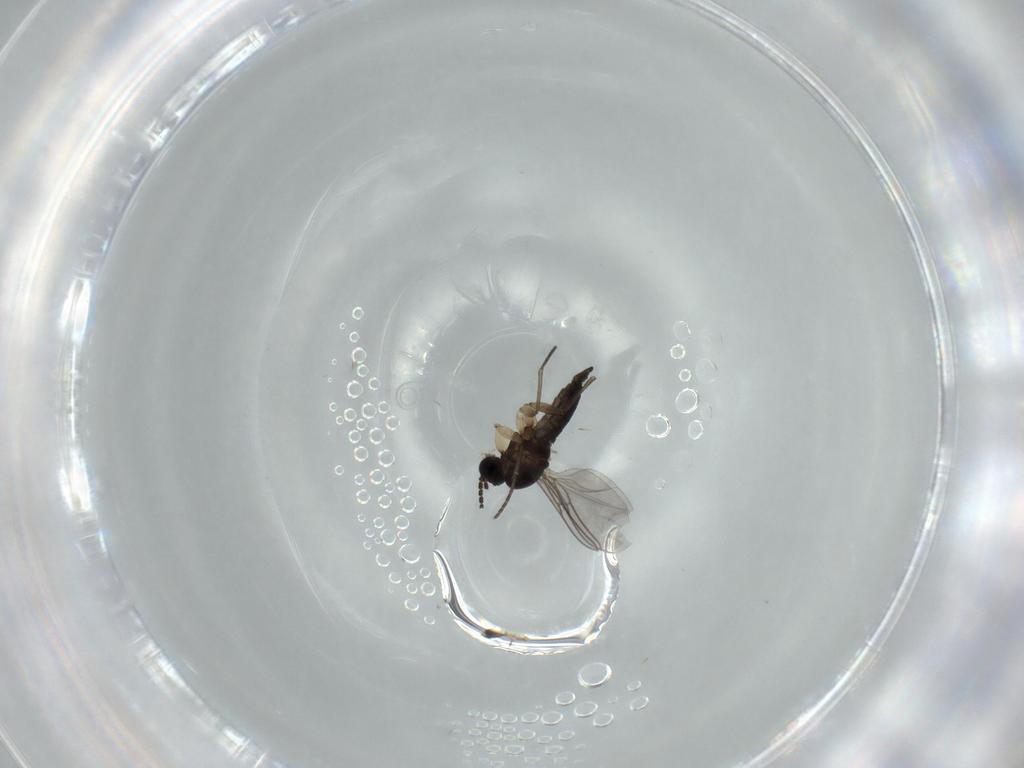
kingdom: Animalia
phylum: Arthropoda
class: Insecta
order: Diptera
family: Sciaridae
